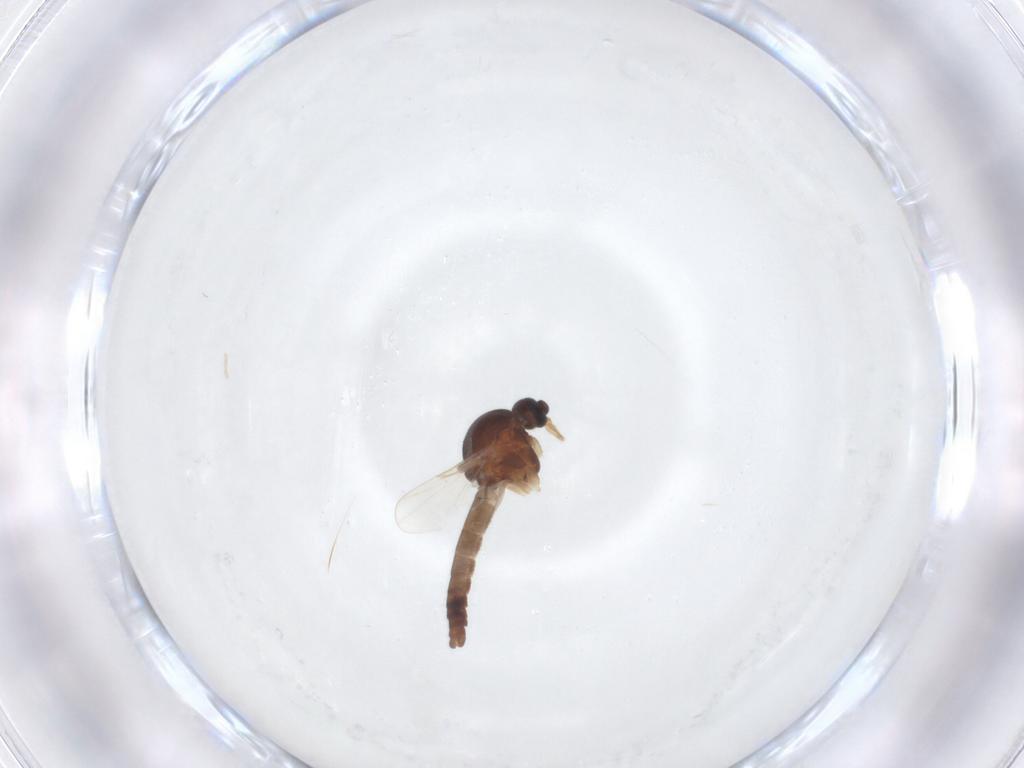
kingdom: Animalia
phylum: Arthropoda
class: Insecta
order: Diptera
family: Ceratopogonidae
